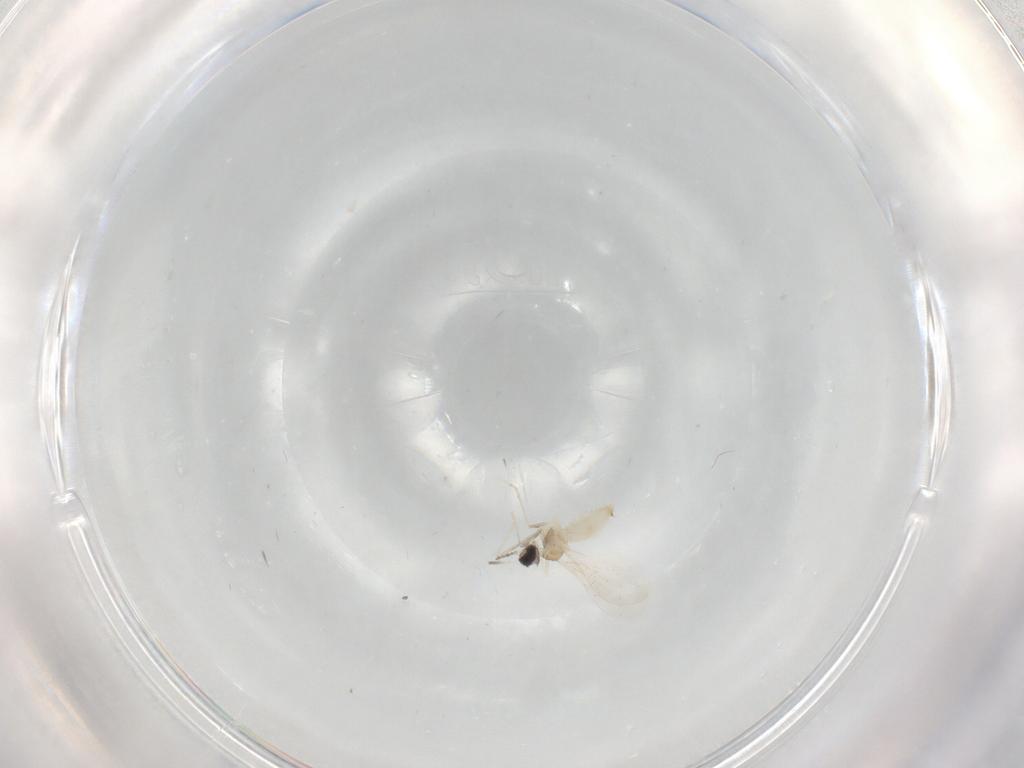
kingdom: Animalia
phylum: Arthropoda
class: Insecta
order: Diptera
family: Cecidomyiidae
